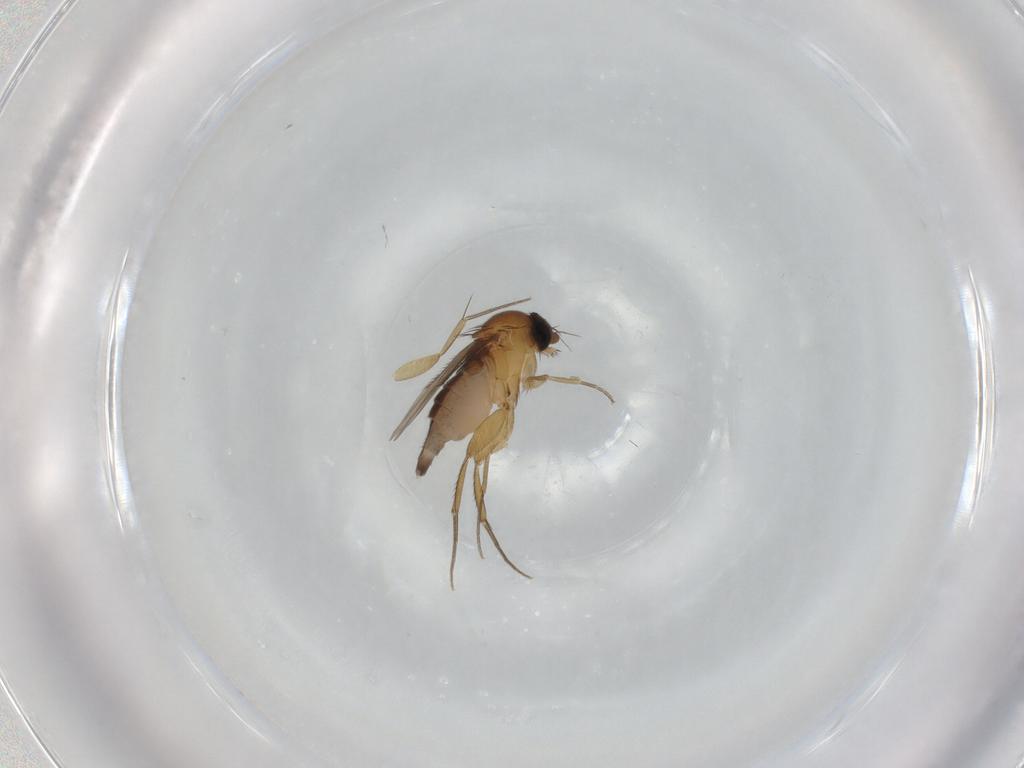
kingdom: Animalia
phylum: Arthropoda
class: Insecta
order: Diptera
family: Phoridae
